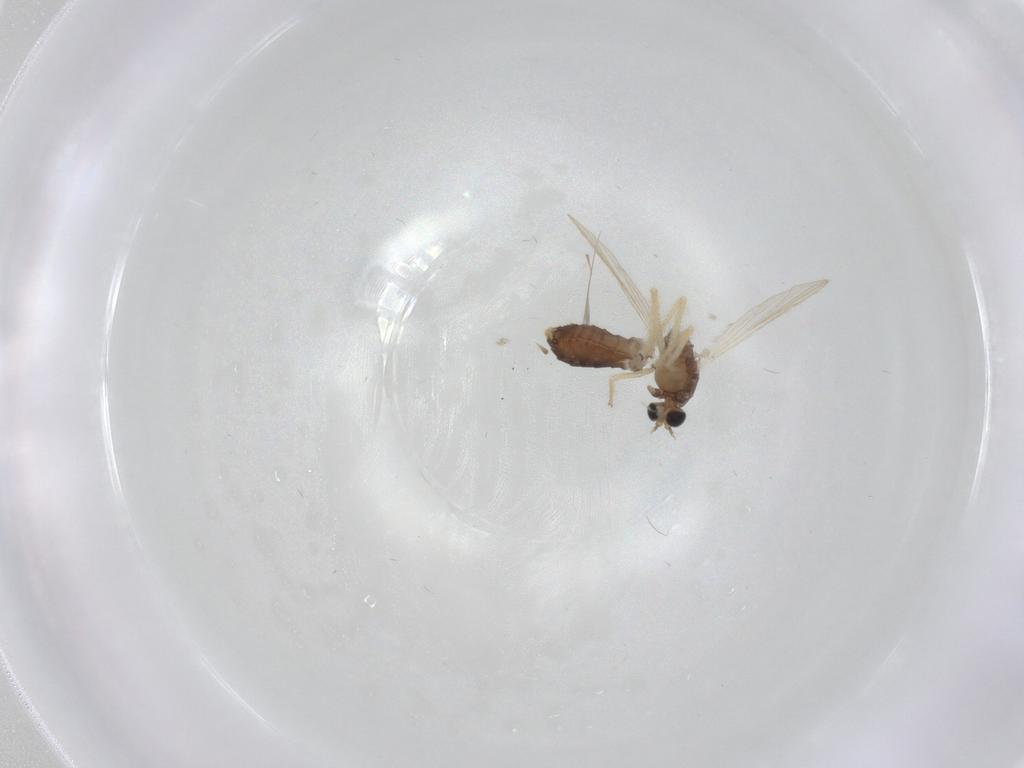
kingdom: Animalia
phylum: Arthropoda
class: Insecta
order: Diptera
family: Chironomidae
